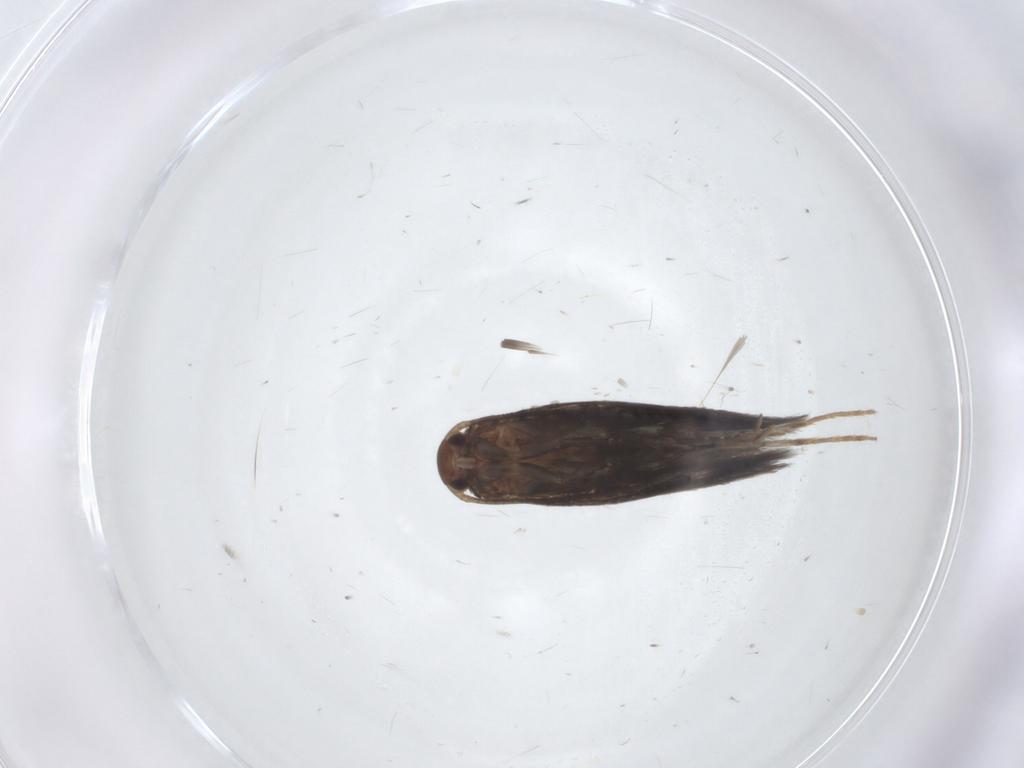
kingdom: Animalia
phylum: Arthropoda
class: Insecta
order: Lepidoptera
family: Elachistidae
